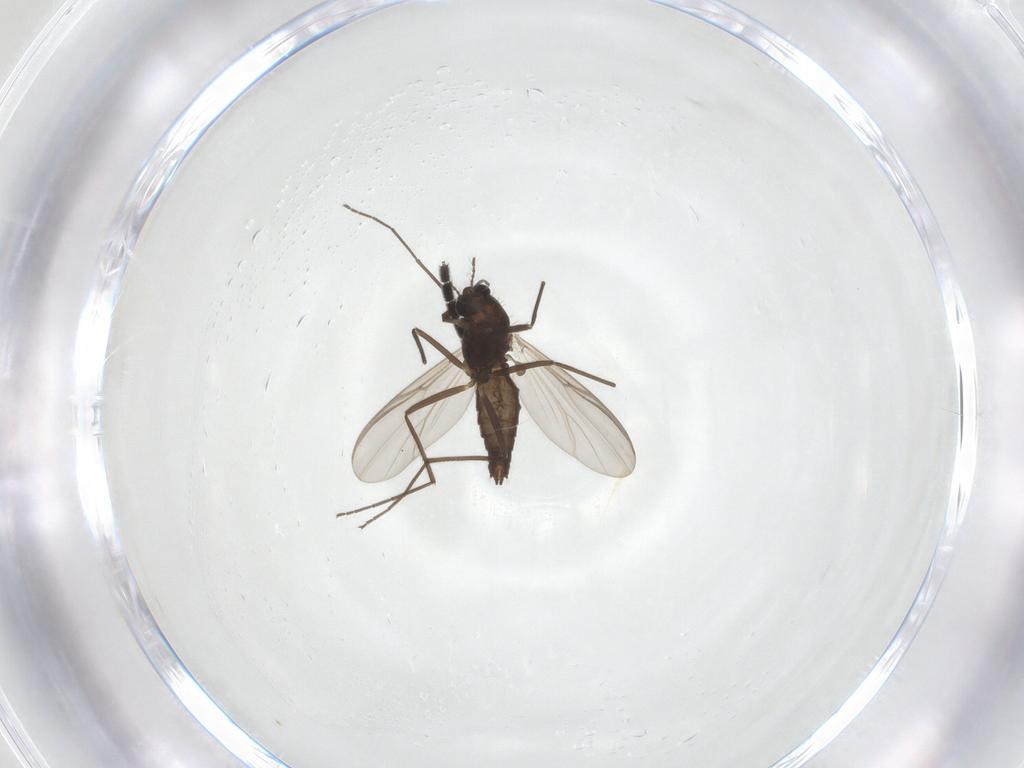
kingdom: Animalia
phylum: Arthropoda
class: Insecta
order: Diptera
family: Chironomidae
